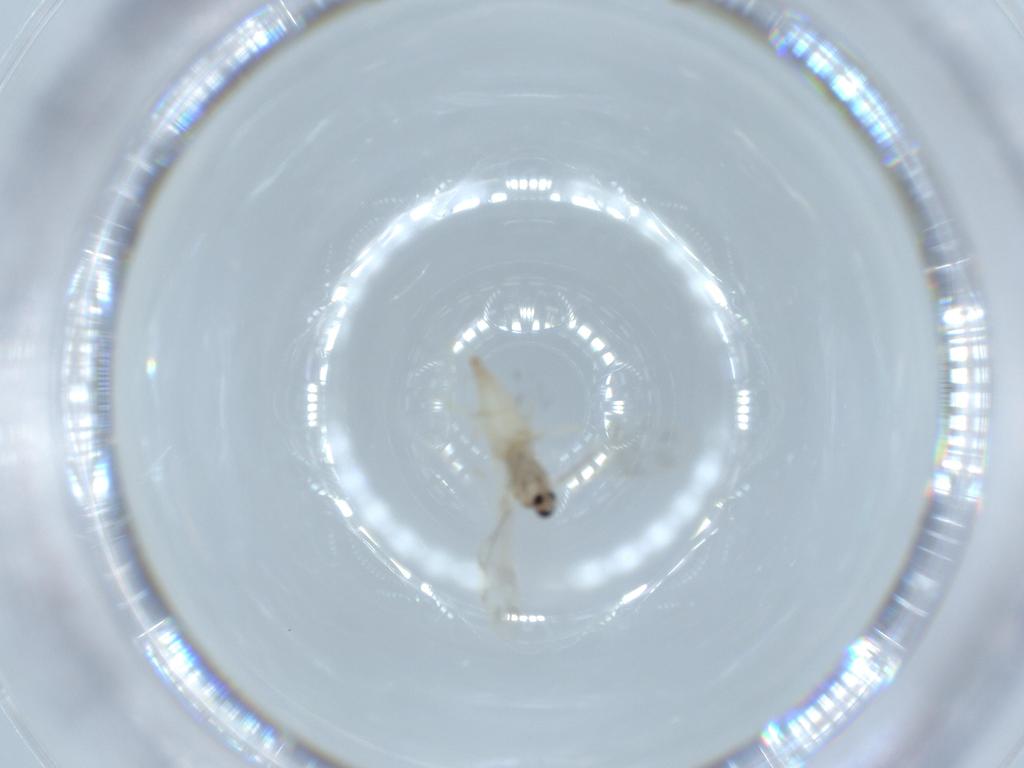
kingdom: Animalia
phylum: Arthropoda
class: Insecta
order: Diptera
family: Cecidomyiidae
